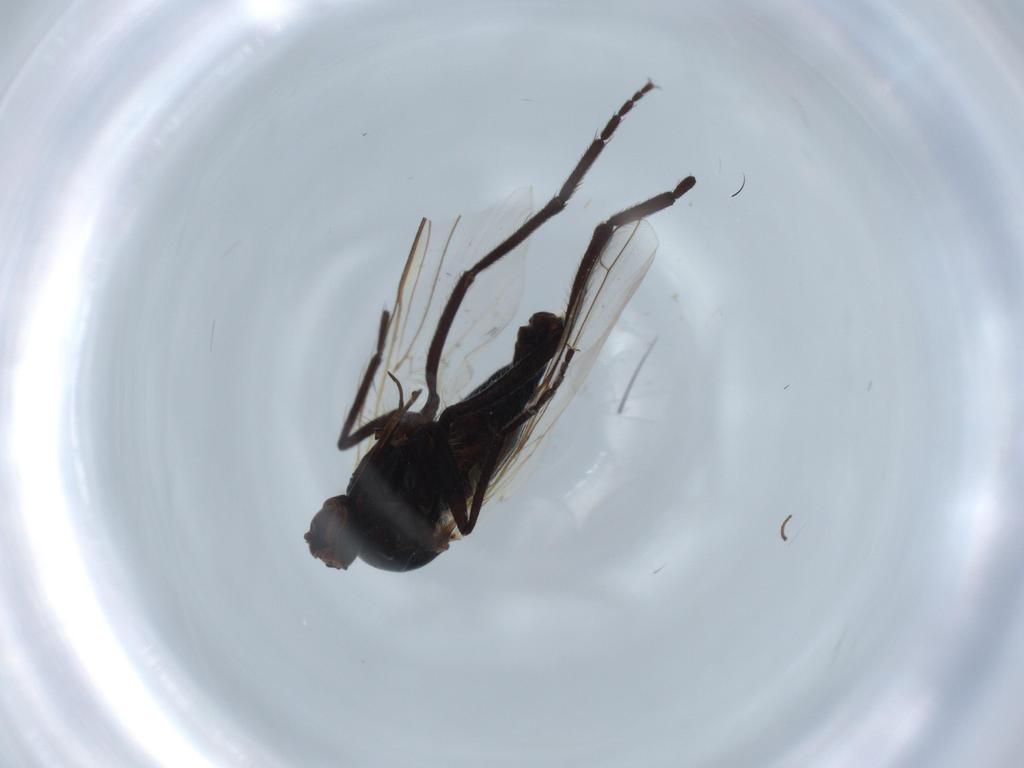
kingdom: Animalia
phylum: Arthropoda
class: Insecta
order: Diptera
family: Empididae
